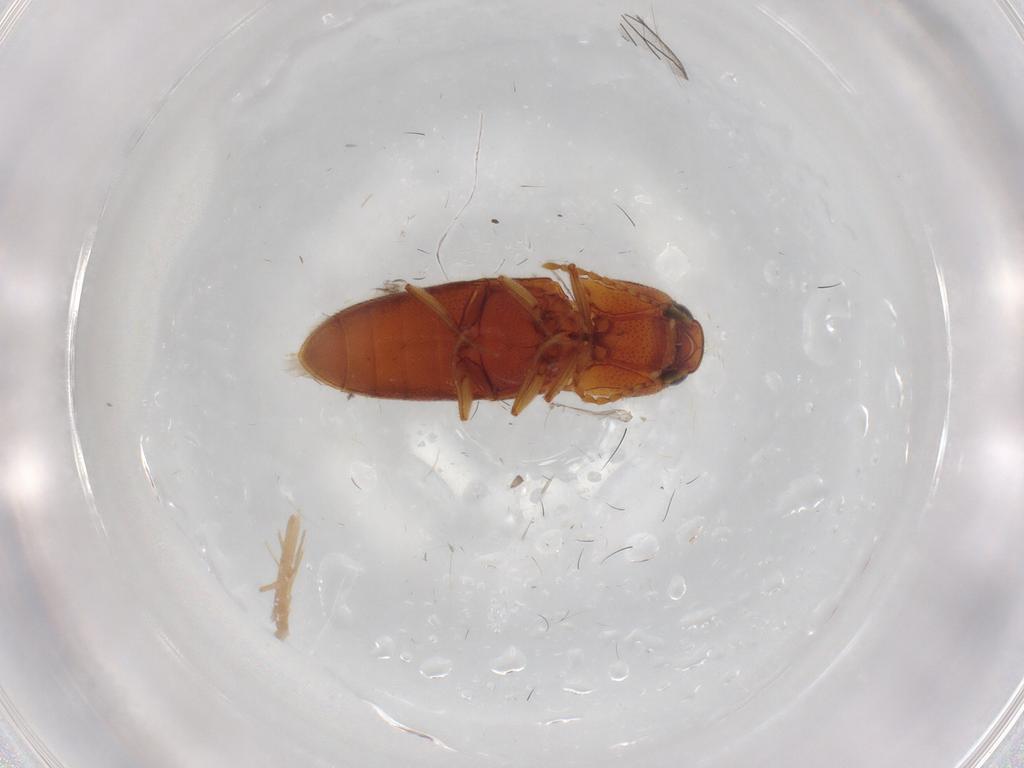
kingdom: Animalia
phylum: Arthropoda
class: Insecta
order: Coleoptera
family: Elateridae
